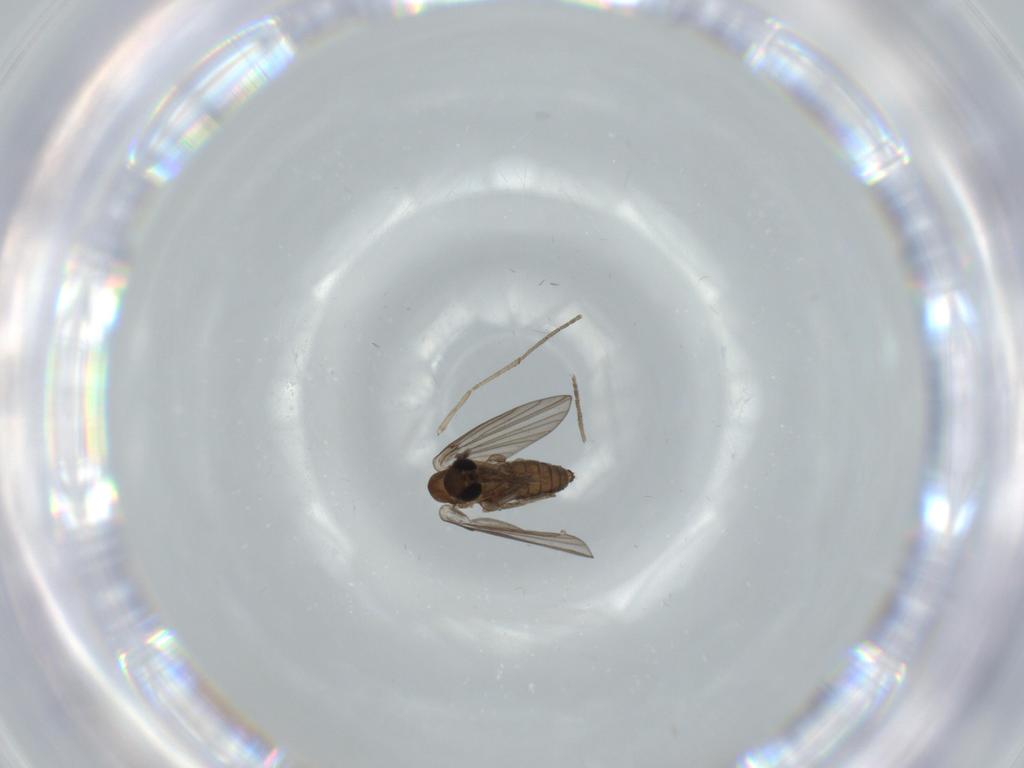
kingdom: Animalia
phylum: Arthropoda
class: Insecta
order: Diptera
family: Psychodidae
